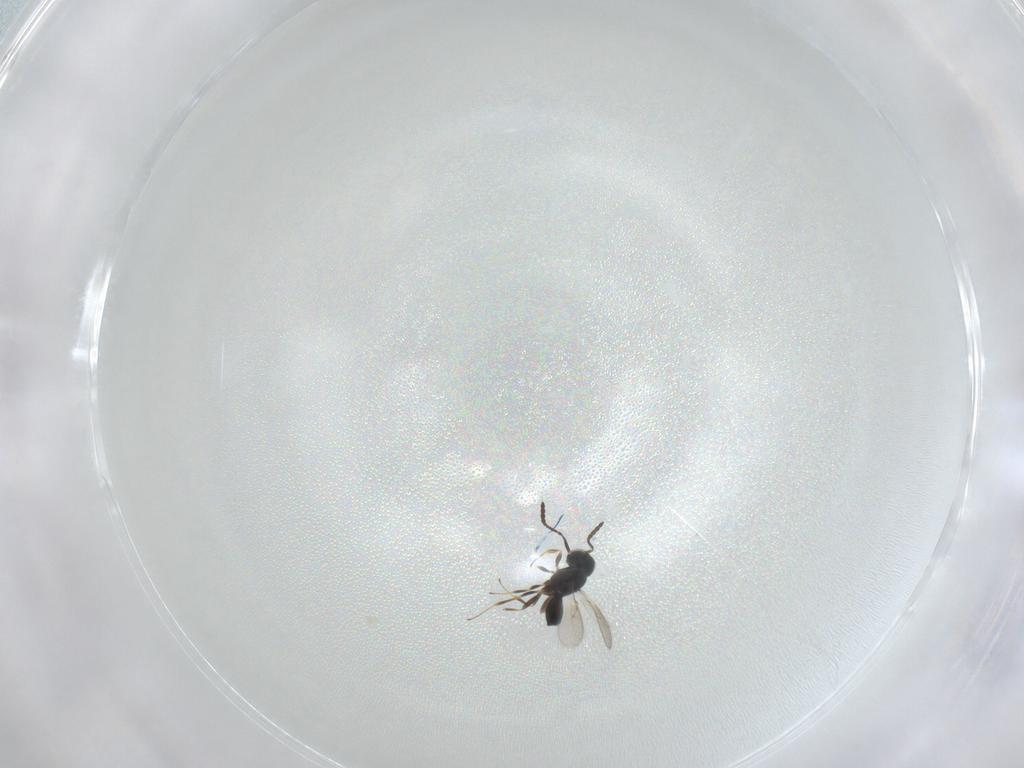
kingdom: Animalia
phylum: Arthropoda
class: Insecta
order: Hymenoptera
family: Scelionidae
